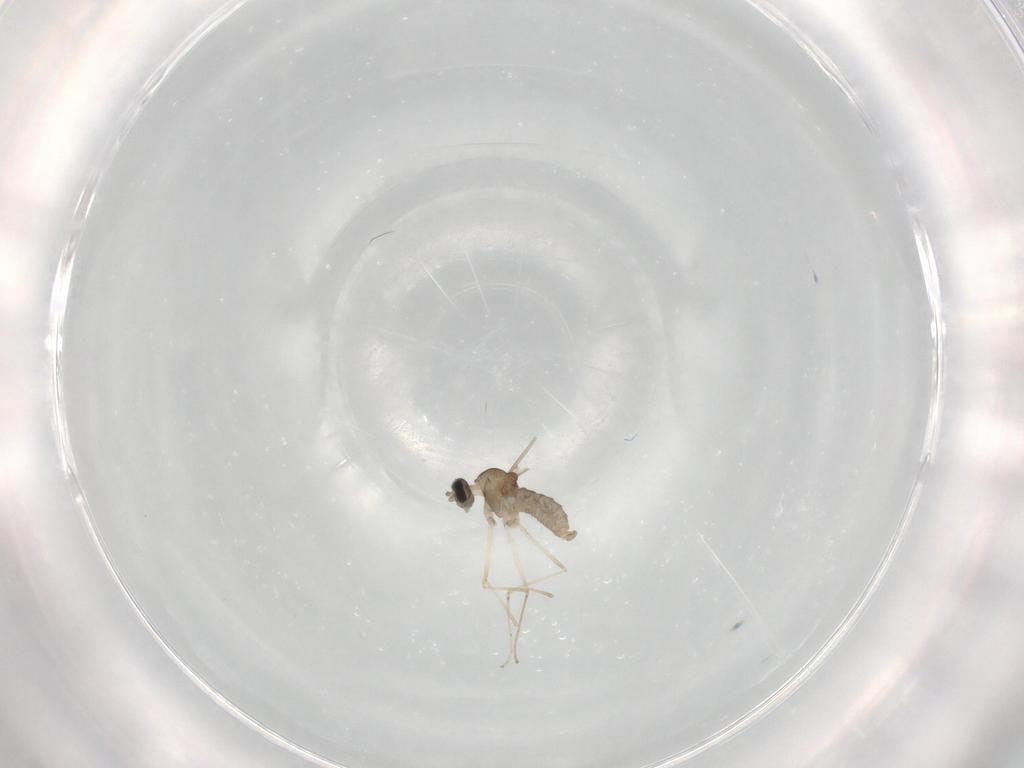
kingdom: Animalia
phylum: Arthropoda
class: Insecta
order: Diptera
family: Cecidomyiidae
